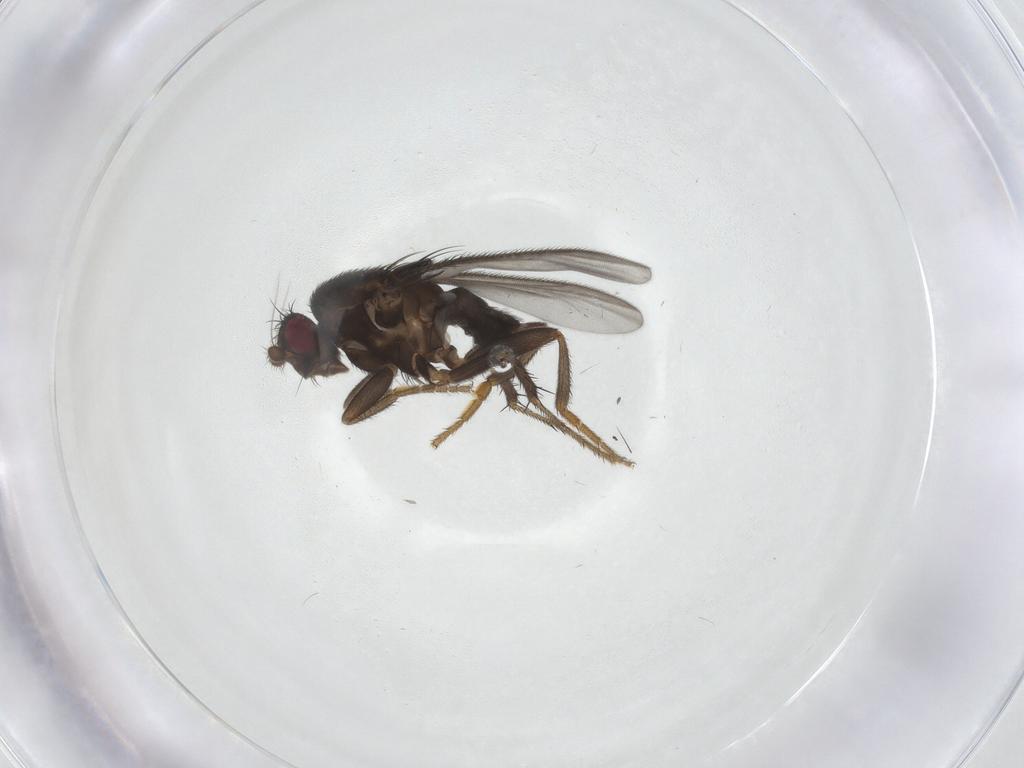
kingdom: Animalia
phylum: Arthropoda
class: Insecta
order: Diptera
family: Sphaeroceridae
